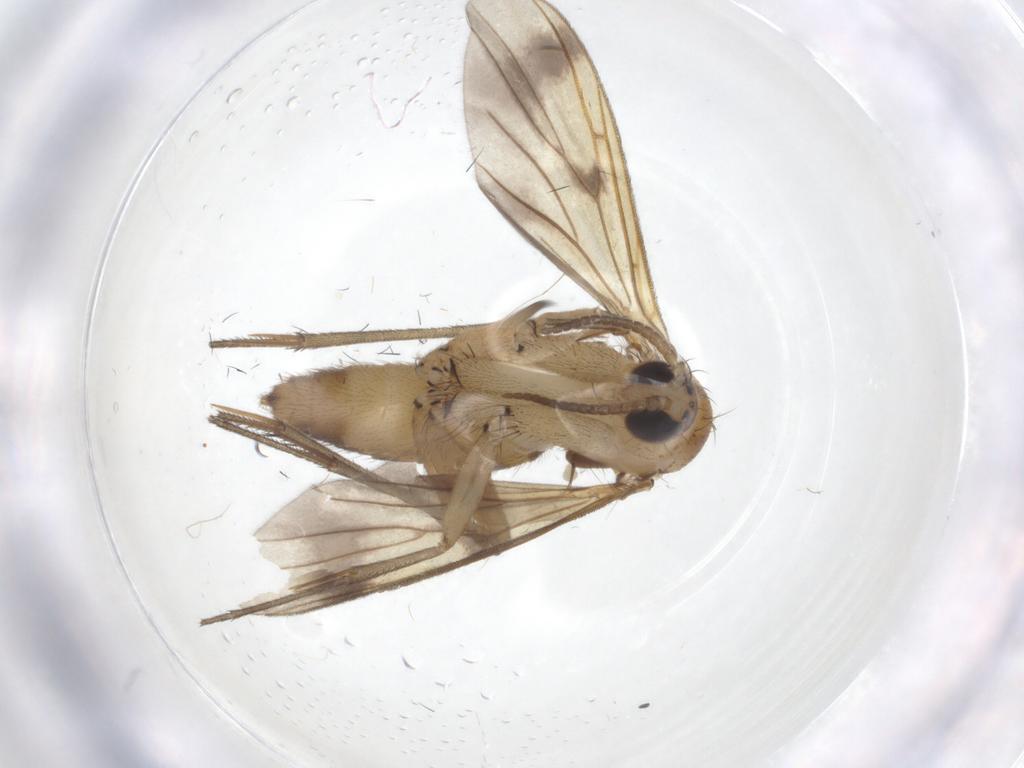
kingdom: Animalia
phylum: Arthropoda
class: Insecta
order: Diptera
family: Mycetophilidae
